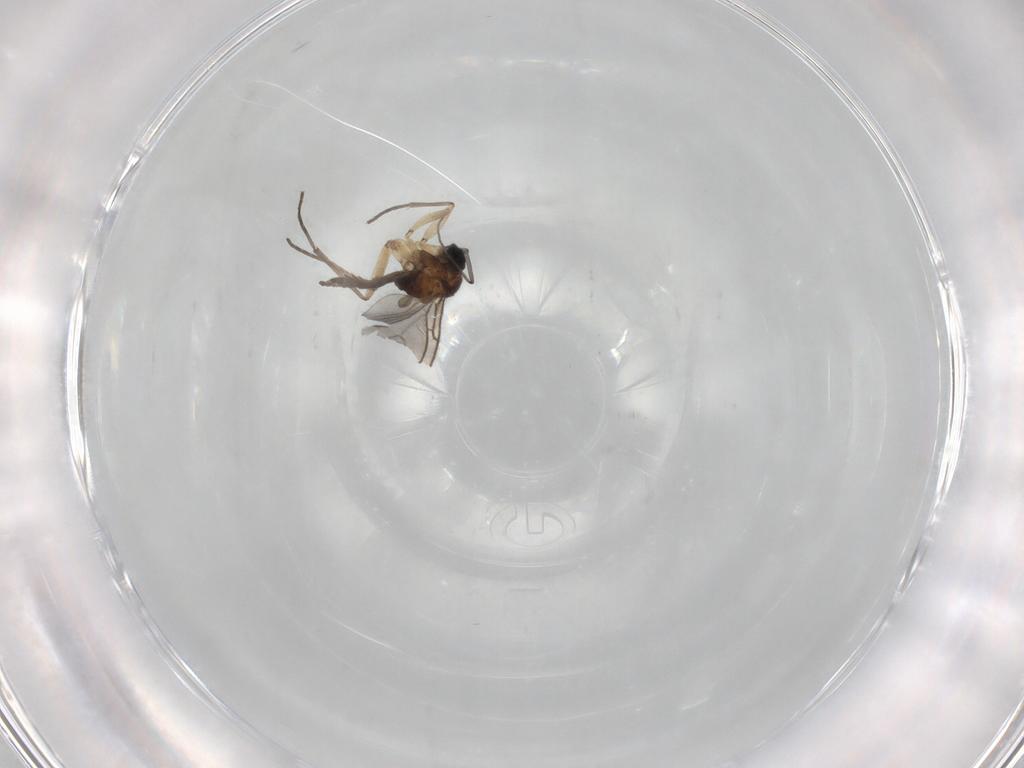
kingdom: Animalia
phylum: Arthropoda
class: Insecta
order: Diptera
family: Sciaridae
